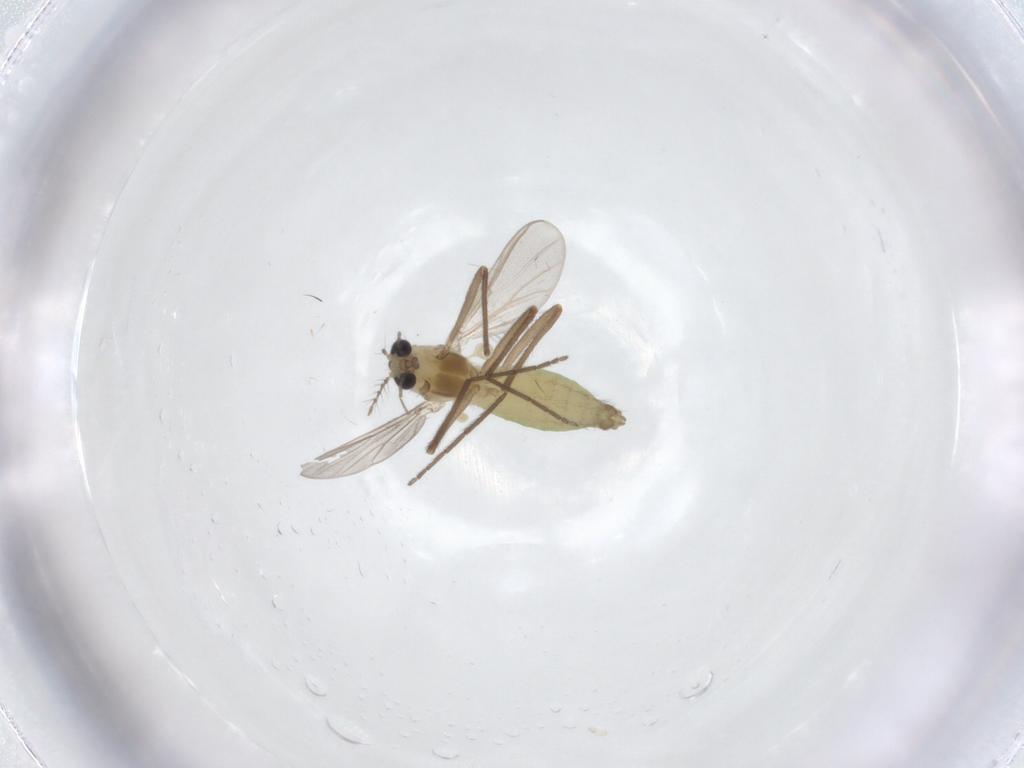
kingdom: Animalia
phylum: Arthropoda
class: Insecta
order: Diptera
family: Chironomidae
